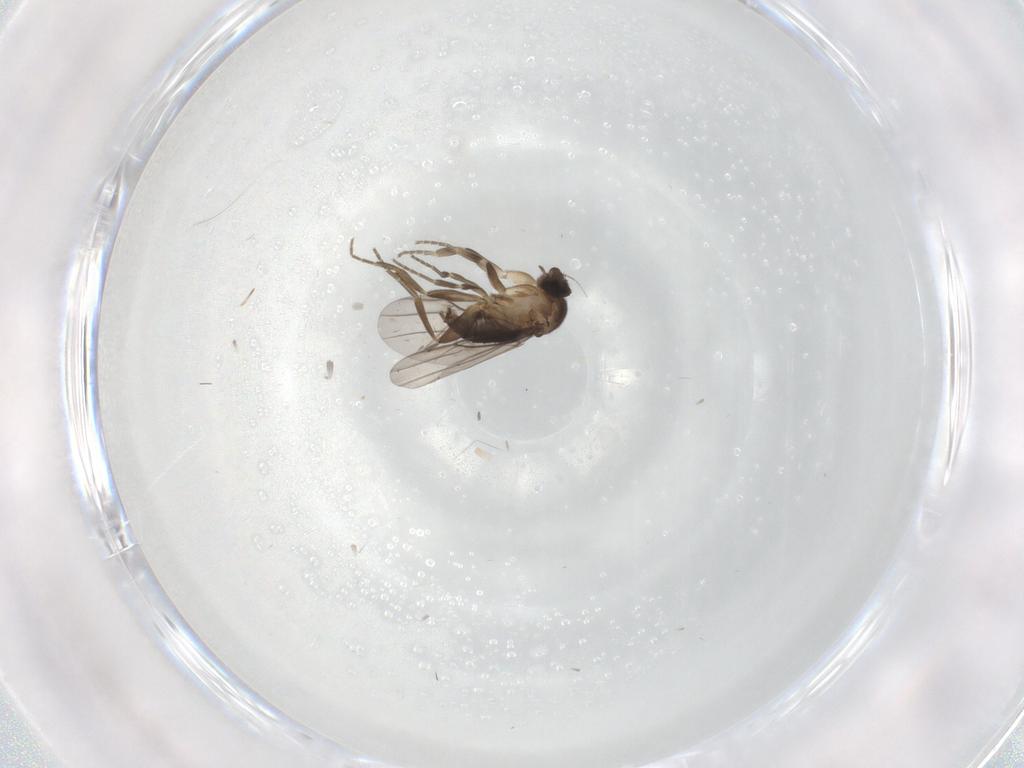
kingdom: Animalia
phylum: Arthropoda
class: Insecta
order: Diptera
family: Phoridae
